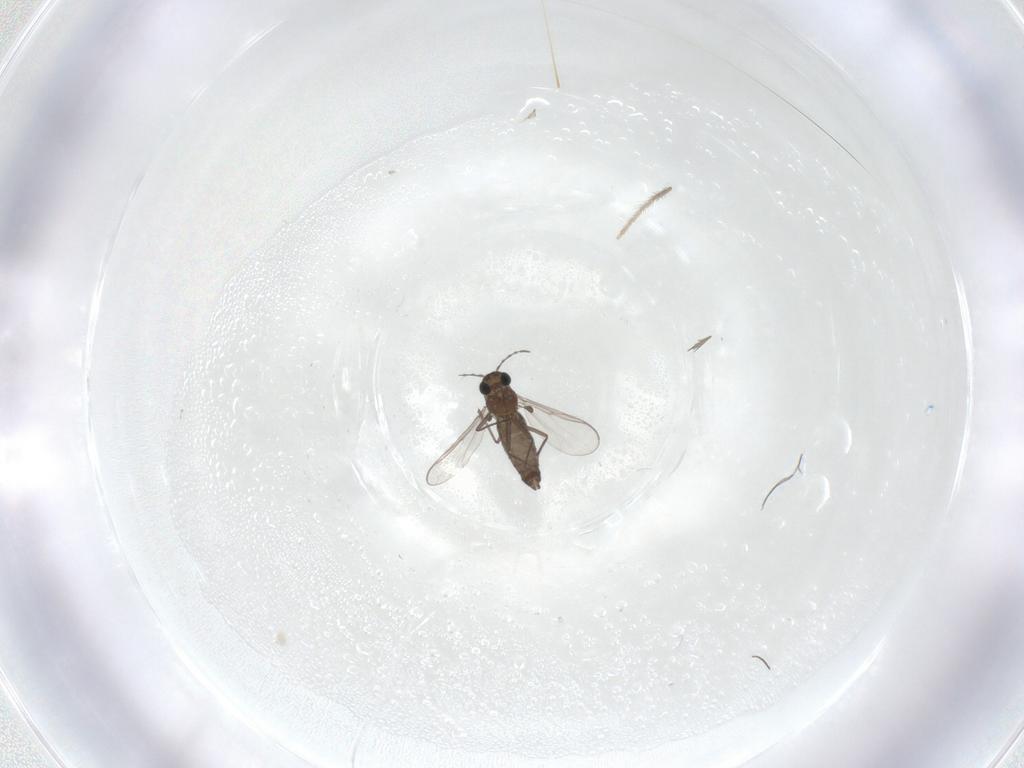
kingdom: Animalia
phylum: Arthropoda
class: Insecta
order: Diptera
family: Chironomidae
